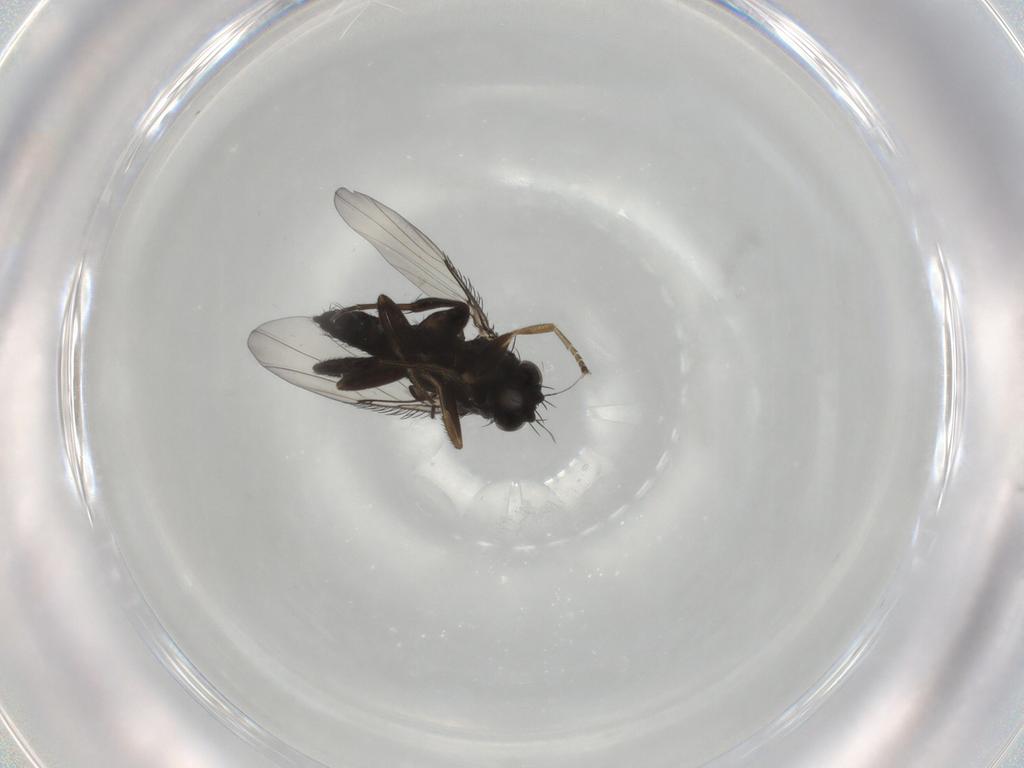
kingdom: Animalia
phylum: Arthropoda
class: Insecta
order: Diptera
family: Phoridae
